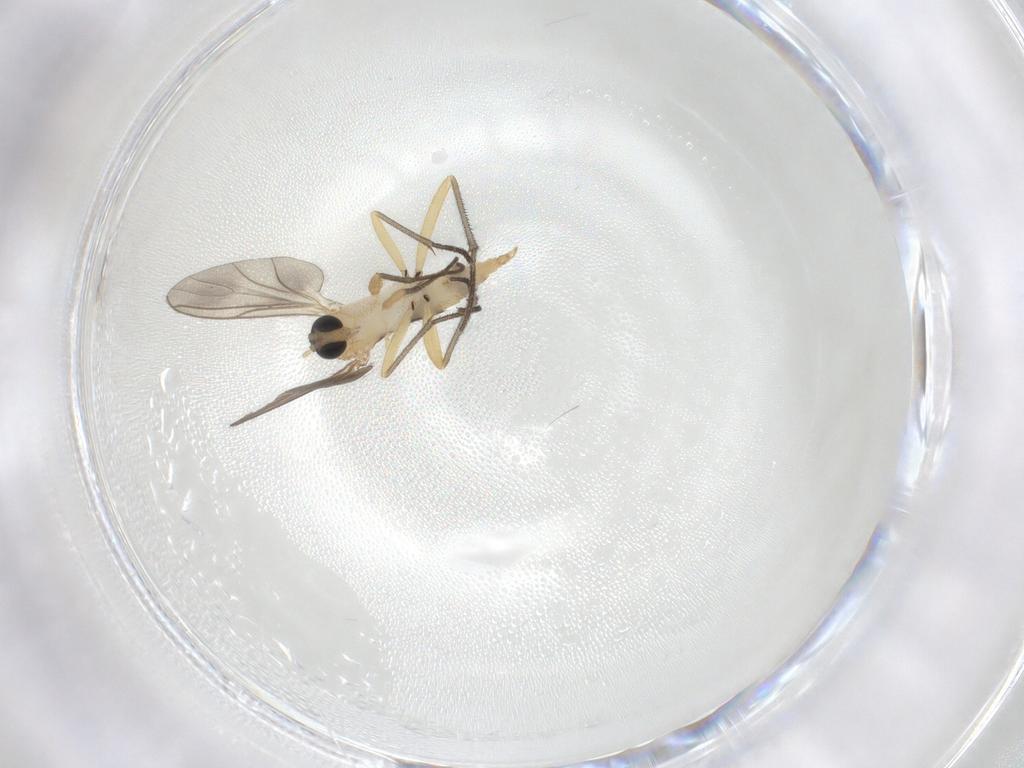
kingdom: Animalia
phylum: Arthropoda
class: Insecta
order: Diptera
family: Sciaridae
